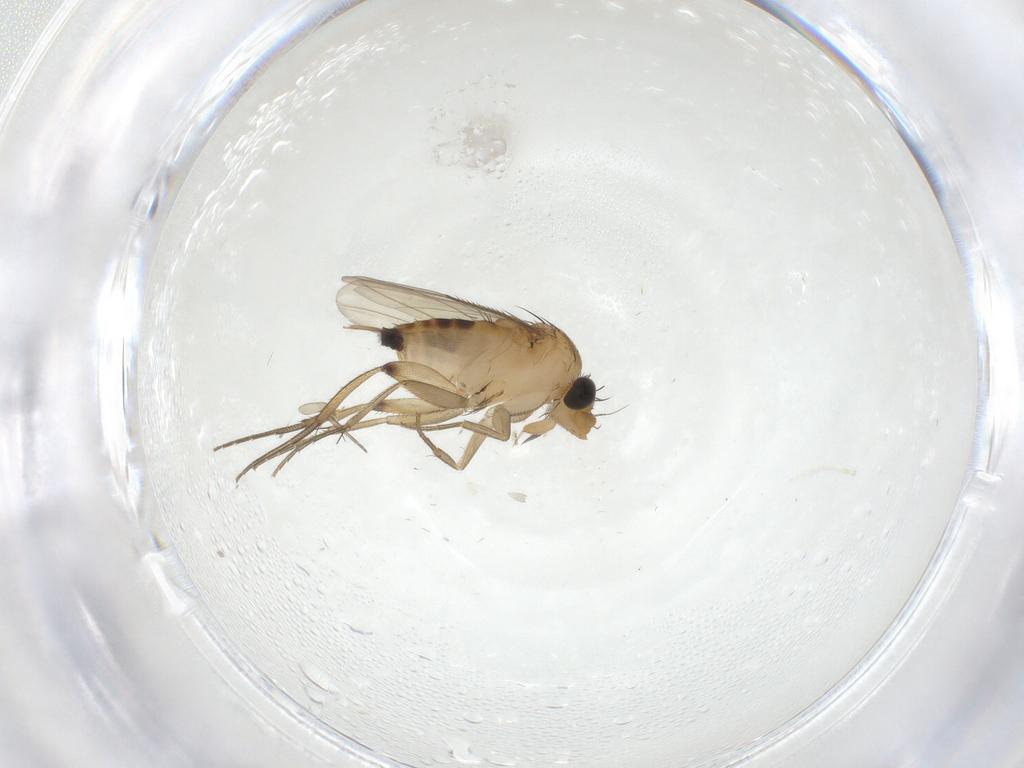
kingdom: Animalia
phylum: Arthropoda
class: Insecta
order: Diptera
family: Phoridae
